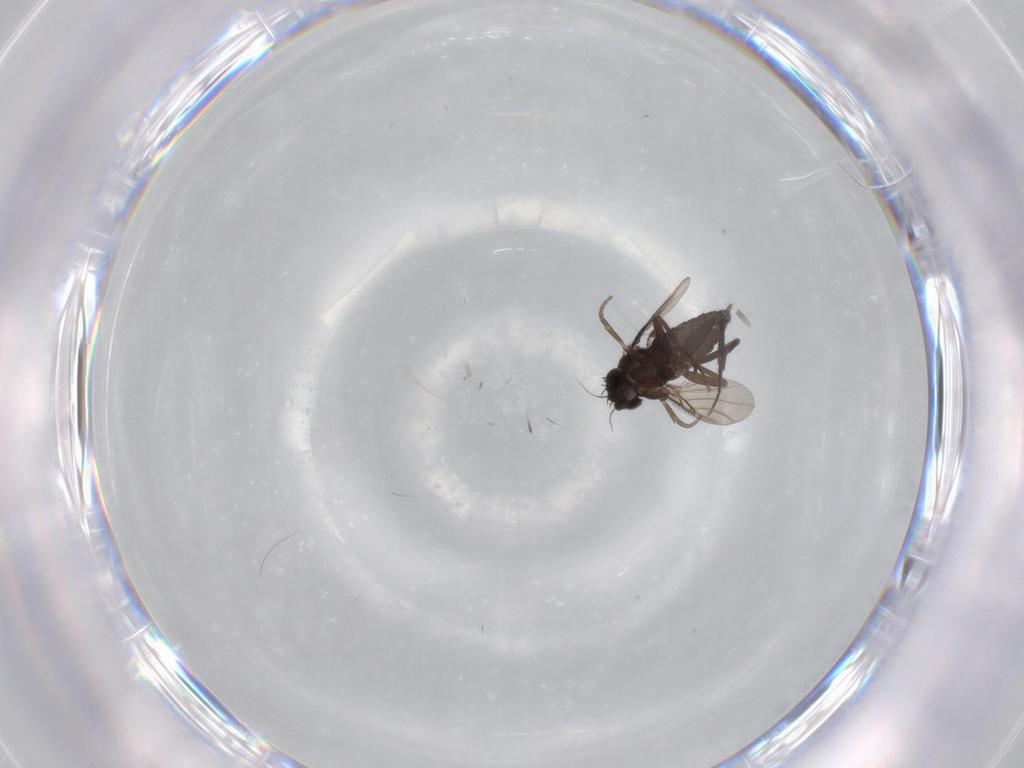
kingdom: Animalia
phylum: Arthropoda
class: Insecta
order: Diptera
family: Phoridae
